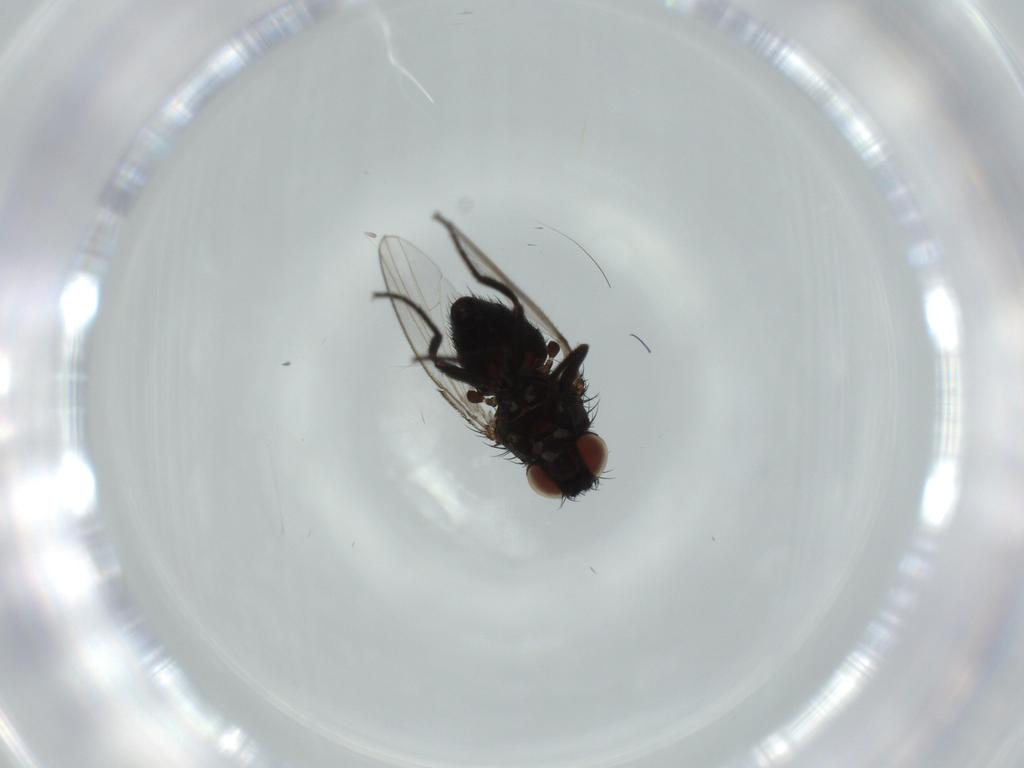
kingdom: Animalia
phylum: Arthropoda
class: Insecta
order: Diptera
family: Milichiidae
